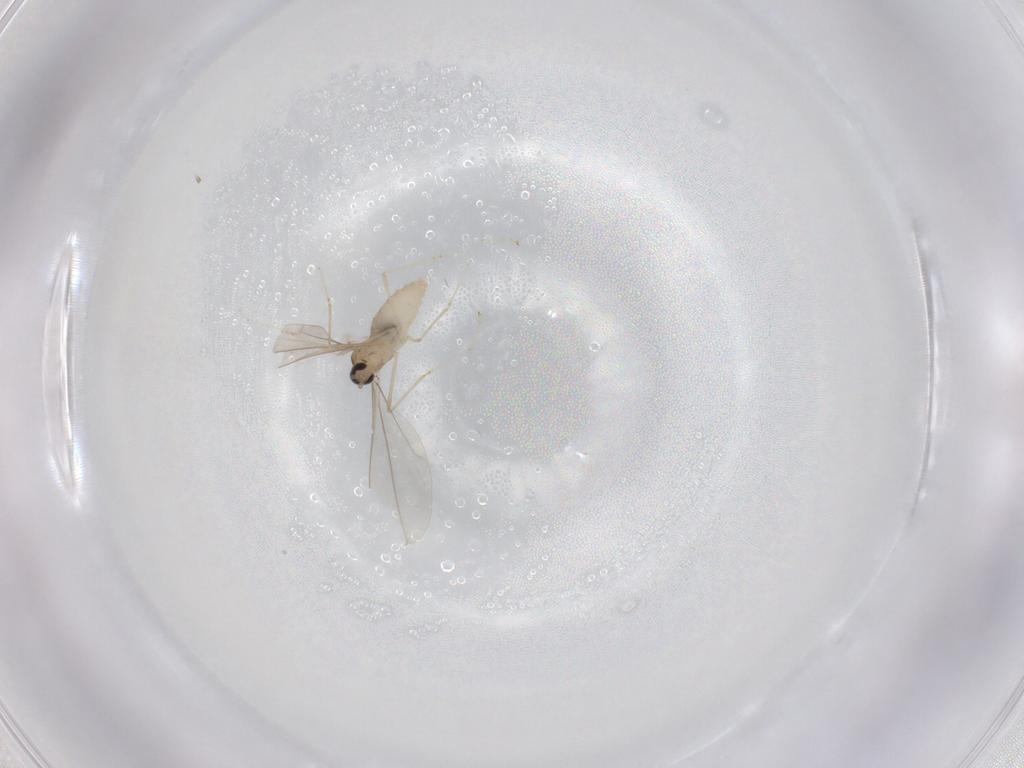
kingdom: Animalia
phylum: Arthropoda
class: Insecta
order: Diptera
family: Cecidomyiidae
